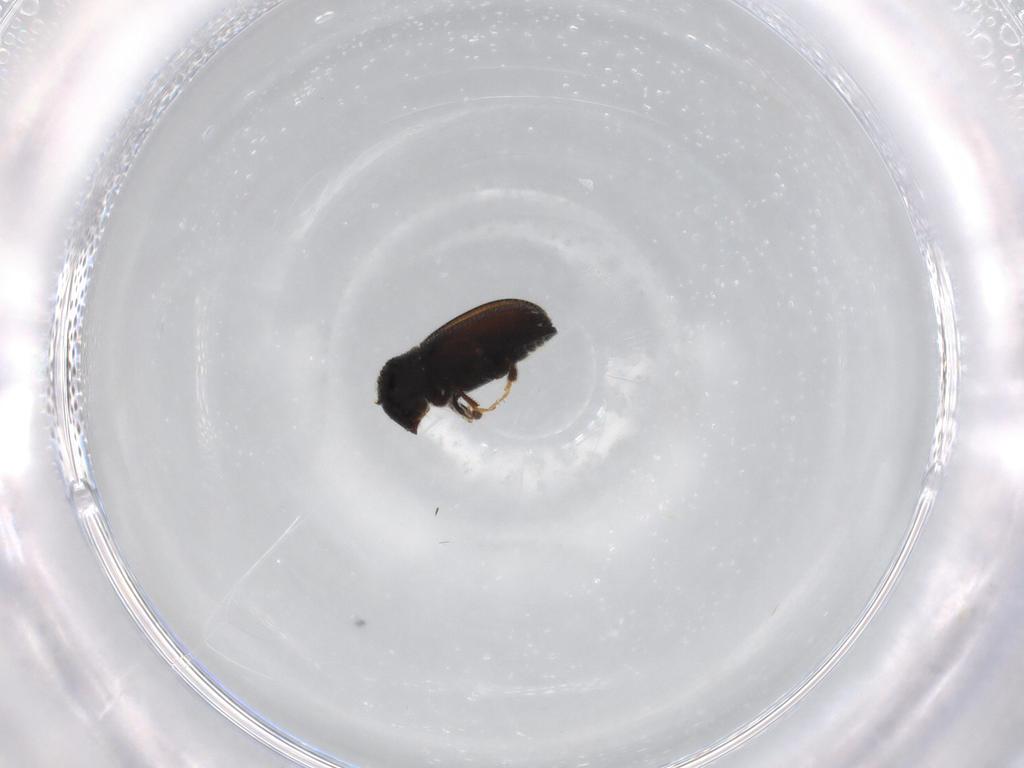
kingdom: Animalia
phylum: Arthropoda
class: Insecta
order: Coleoptera
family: Curculionidae
